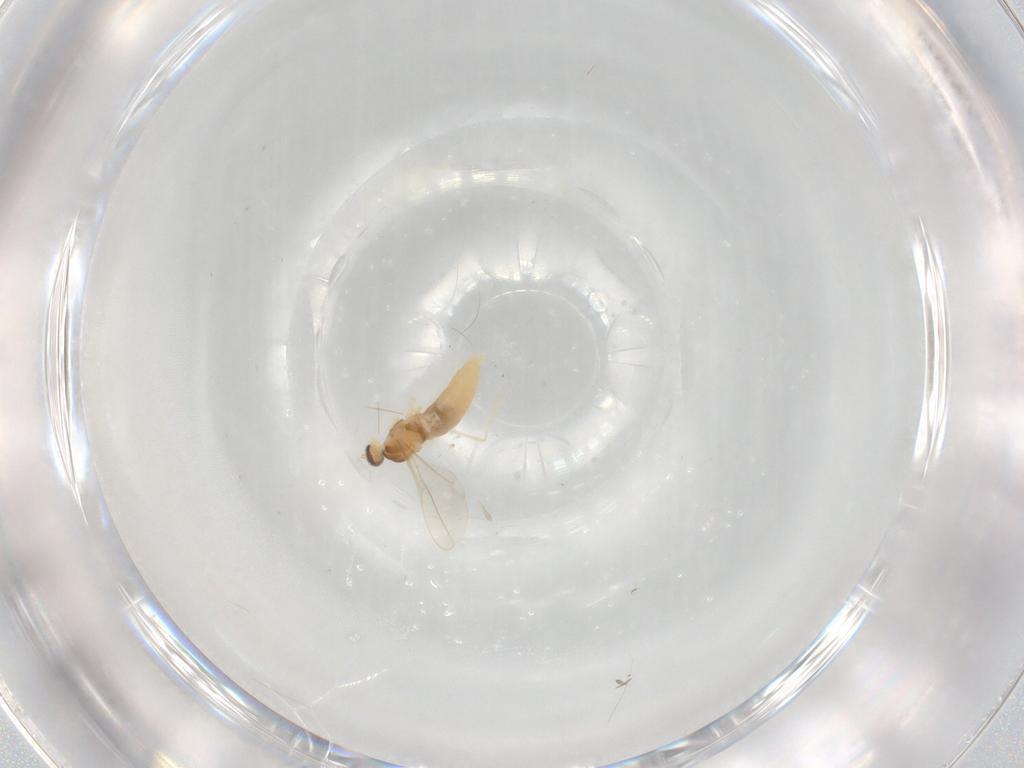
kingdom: Animalia
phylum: Arthropoda
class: Insecta
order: Diptera
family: Cecidomyiidae
